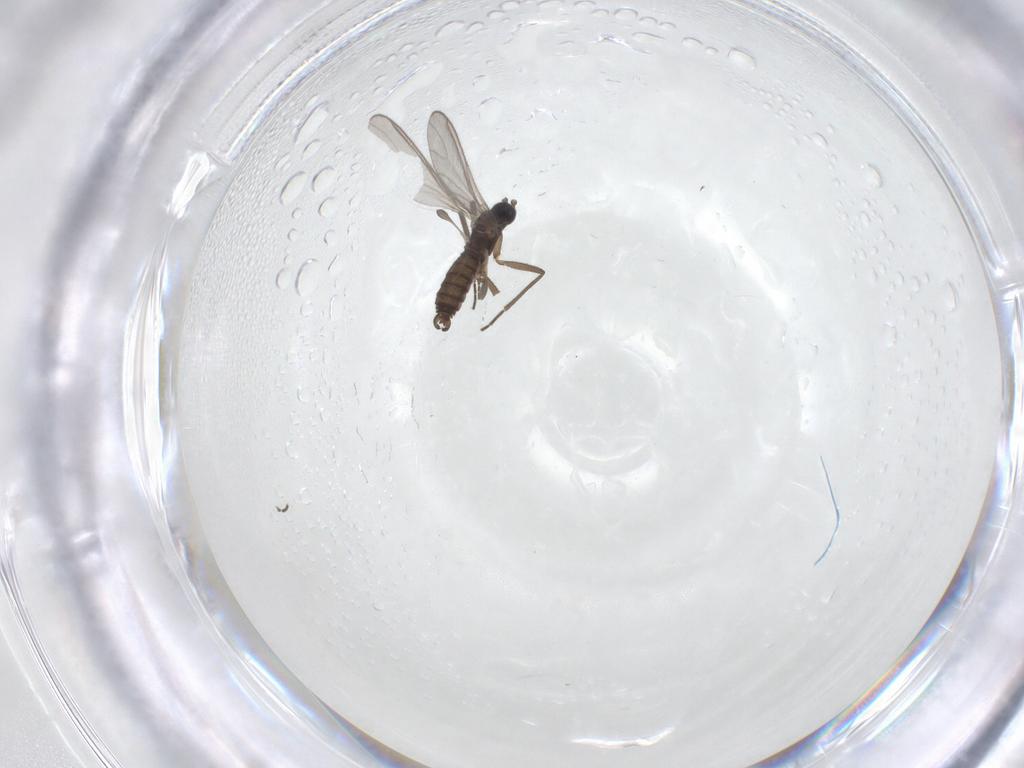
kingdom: Animalia
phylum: Arthropoda
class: Insecta
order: Diptera
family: Sciaridae
